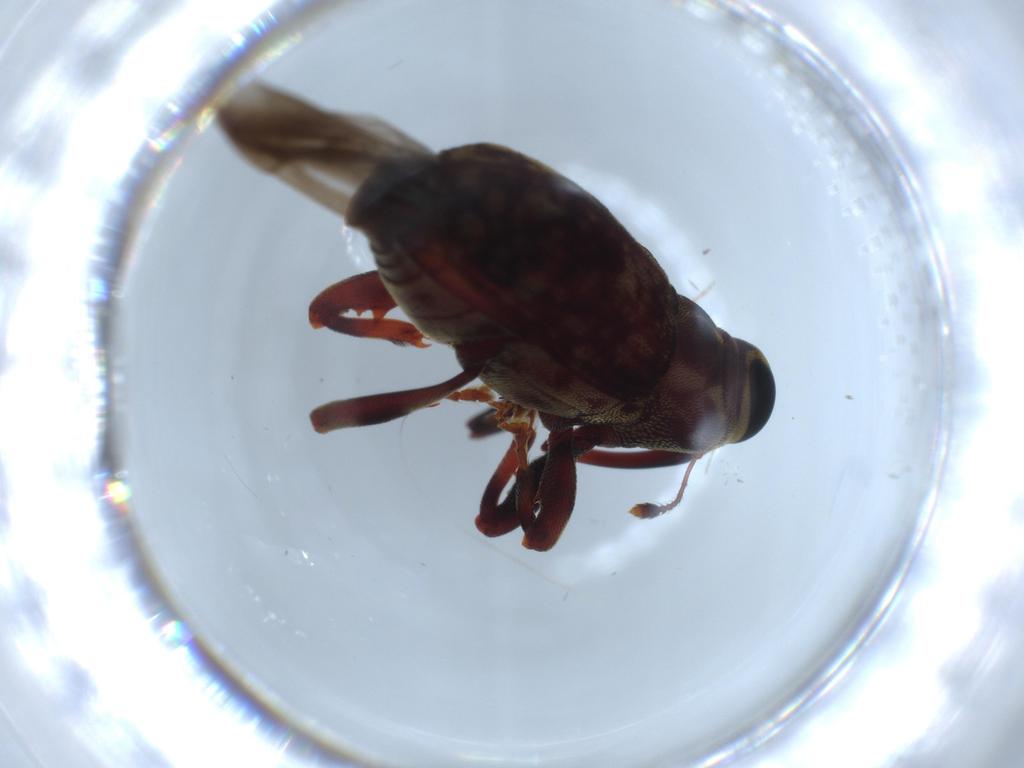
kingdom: Animalia
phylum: Arthropoda
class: Insecta
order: Coleoptera
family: Curculionidae
